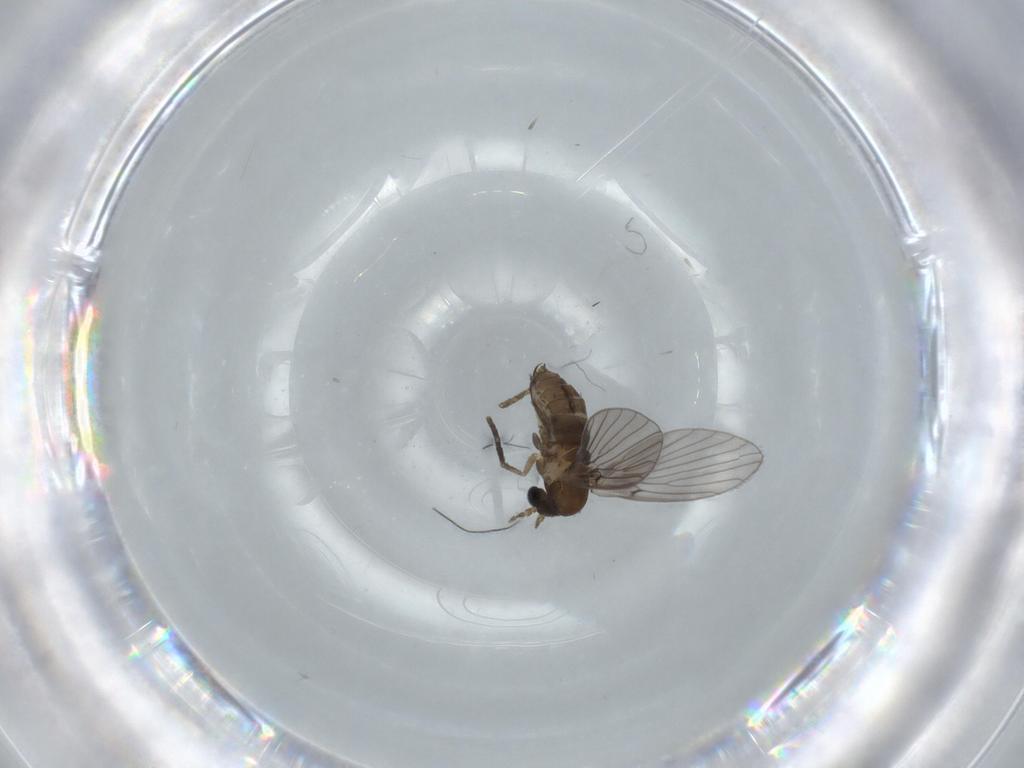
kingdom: Animalia
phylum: Arthropoda
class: Insecta
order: Diptera
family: Psychodidae
